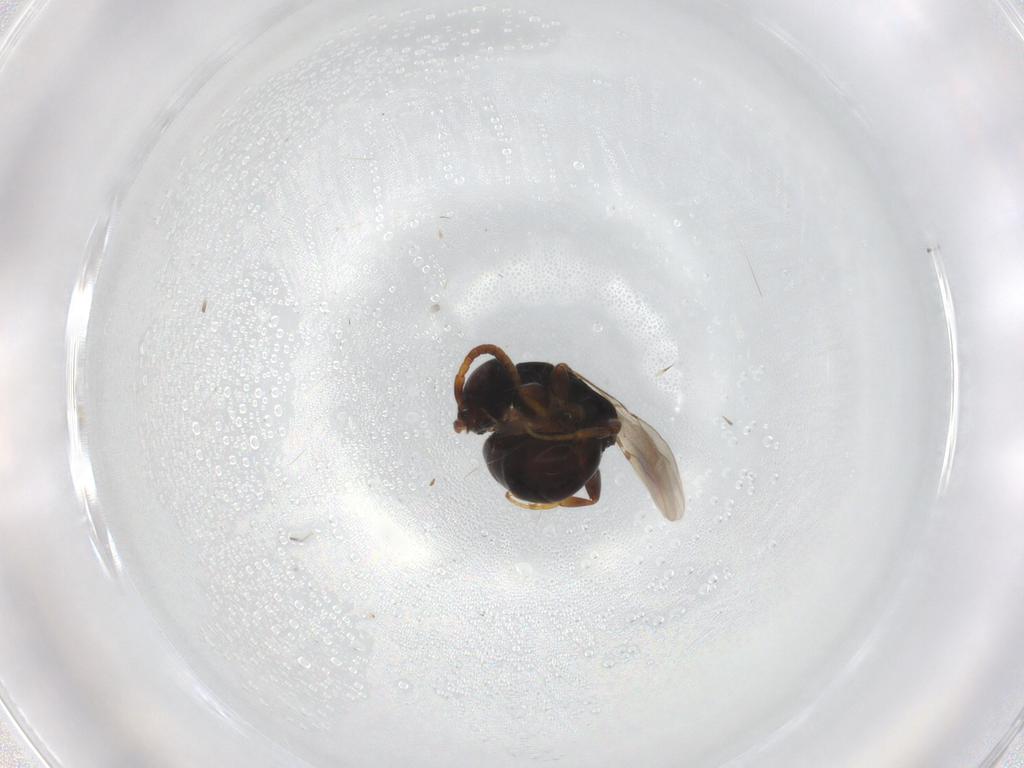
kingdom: Animalia
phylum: Arthropoda
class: Insecta
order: Hymenoptera
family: Bethylidae
